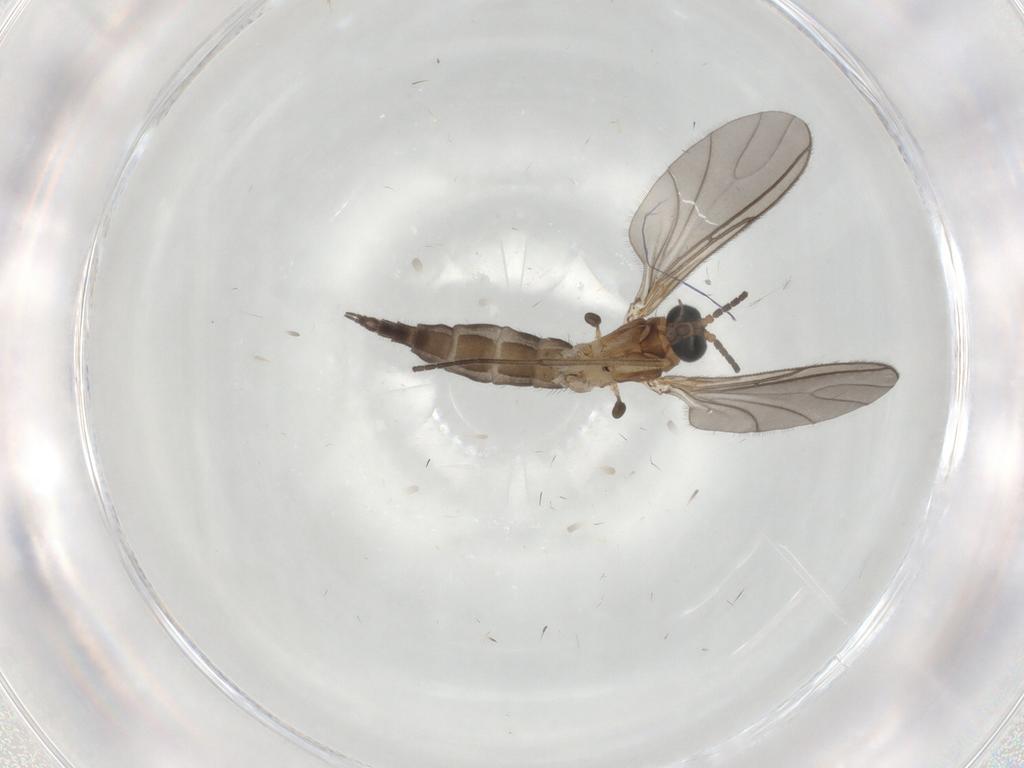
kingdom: Animalia
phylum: Arthropoda
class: Insecta
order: Diptera
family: Sciaridae
